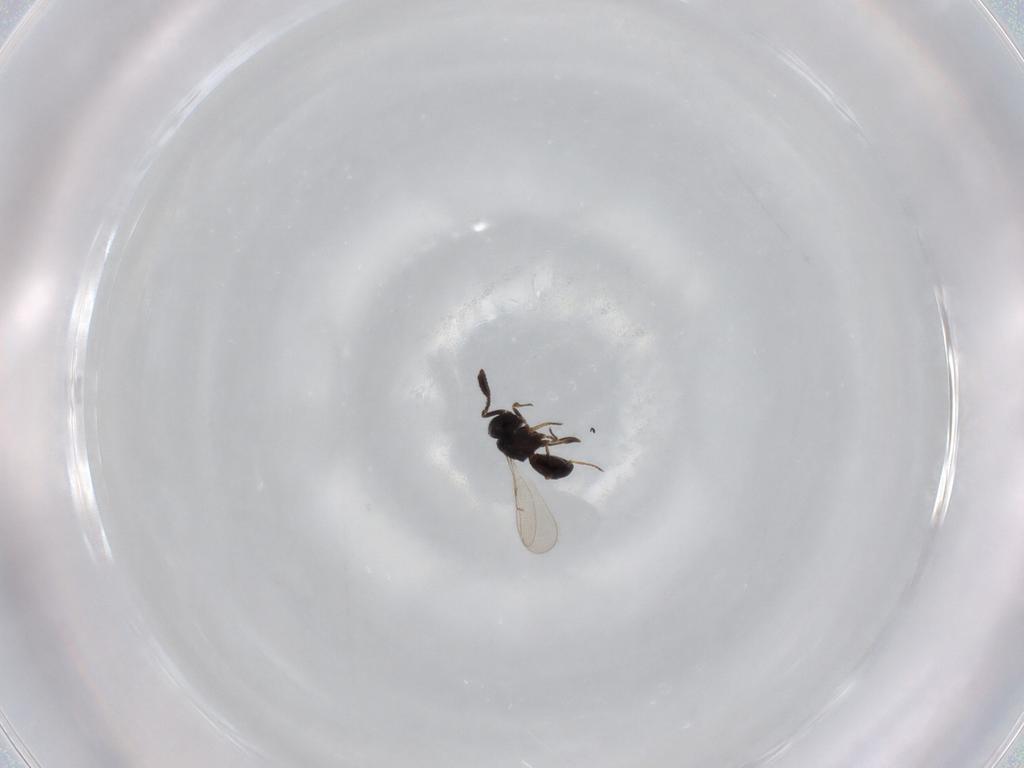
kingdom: Animalia
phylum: Arthropoda
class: Insecta
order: Hymenoptera
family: Scelionidae
